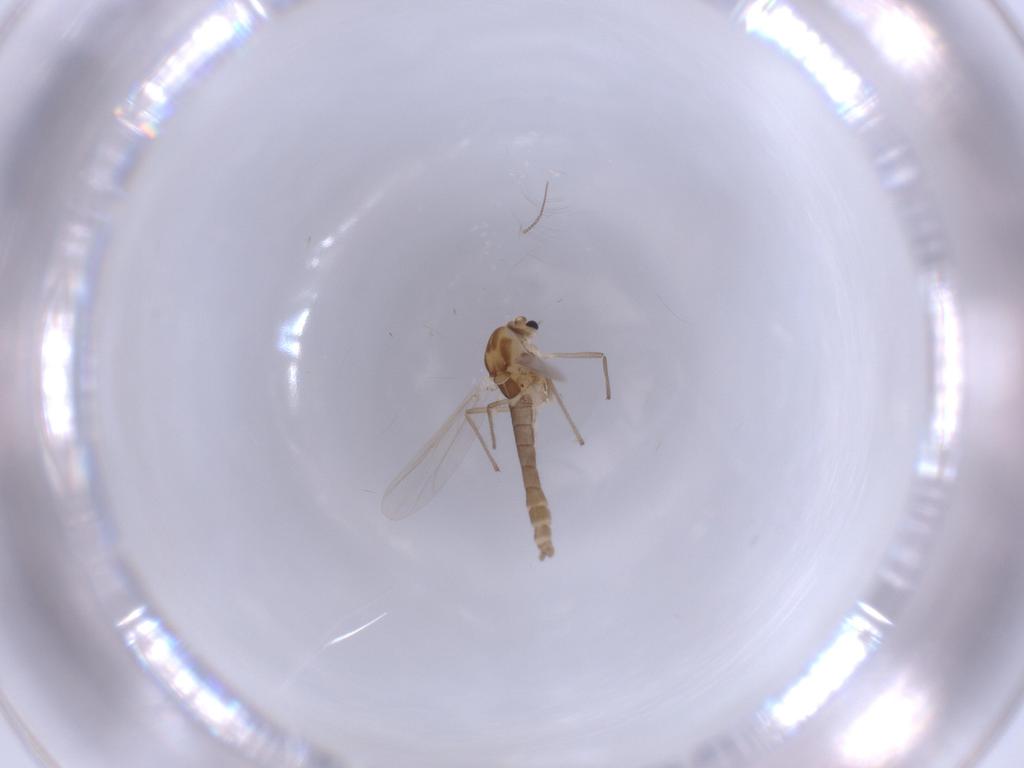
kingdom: Animalia
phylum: Arthropoda
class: Insecta
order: Diptera
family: Chironomidae
